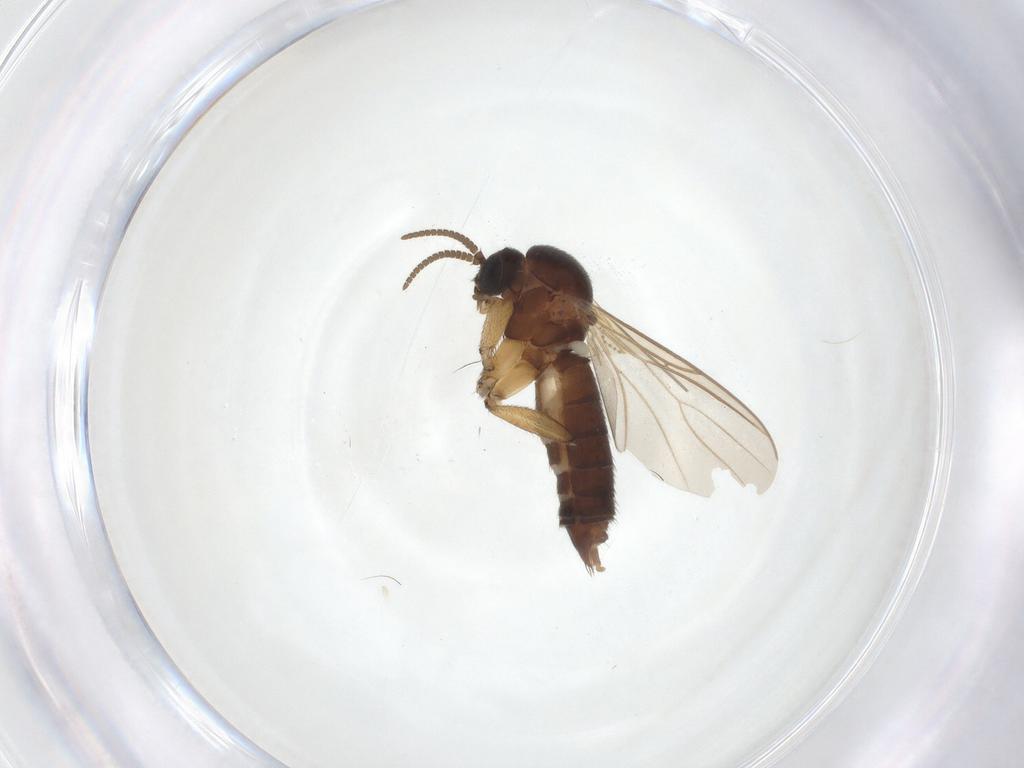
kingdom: Animalia
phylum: Arthropoda
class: Insecta
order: Diptera
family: Mycetophilidae
